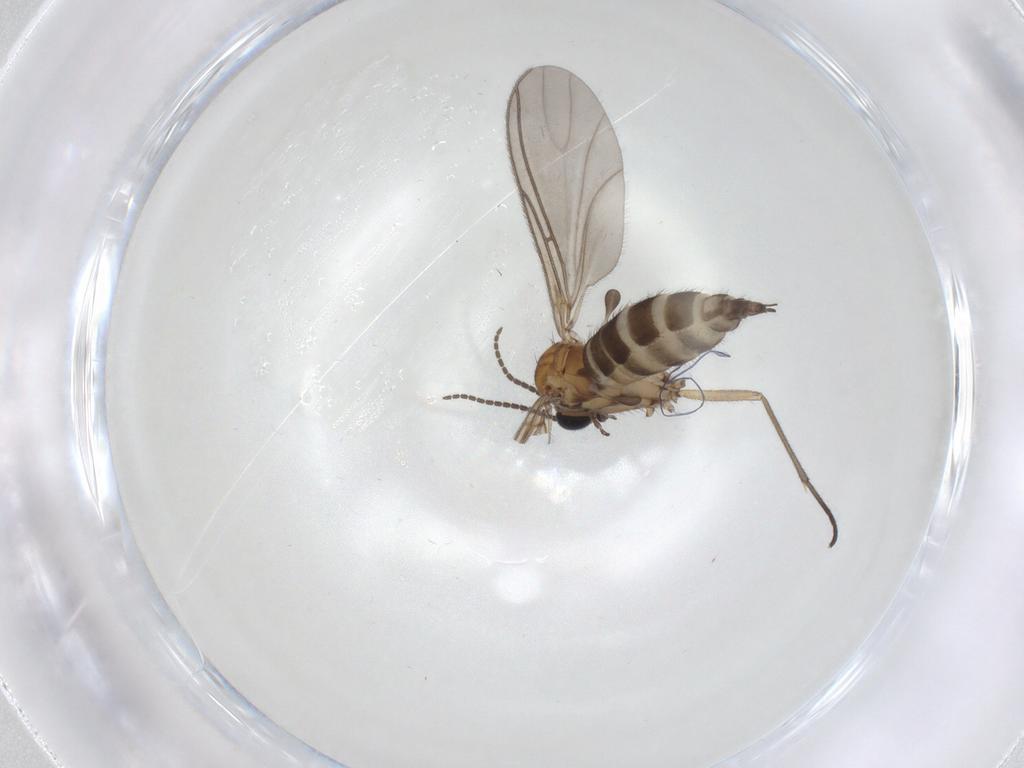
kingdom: Animalia
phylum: Arthropoda
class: Insecta
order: Diptera
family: Sciaridae
